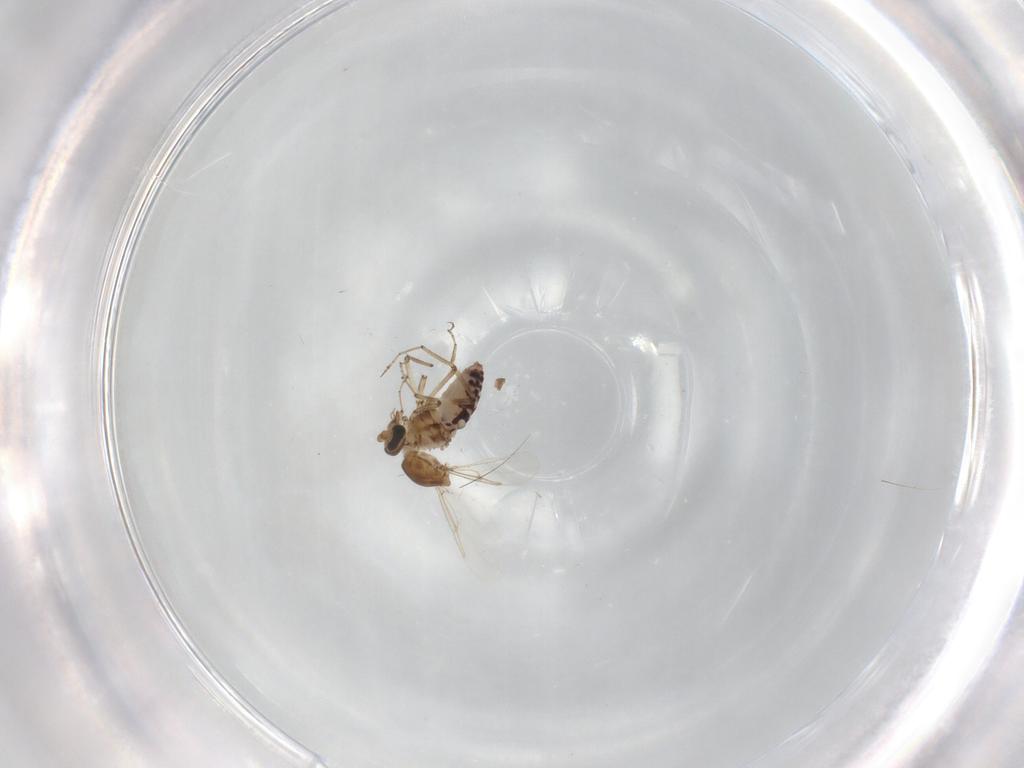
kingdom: Animalia
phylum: Arthropoda
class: Insecta
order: Diptera
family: Ceratopogonidae
